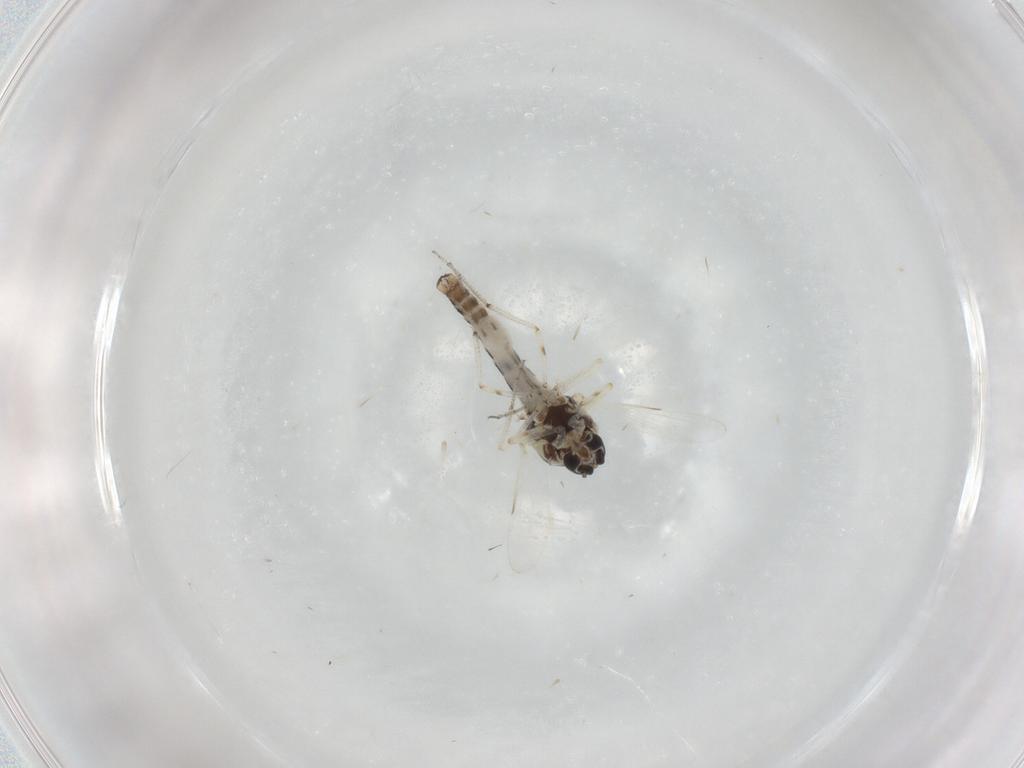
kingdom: Animalia
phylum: Arthropoda
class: Insecta
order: Diptera
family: Ceratopogonidae
